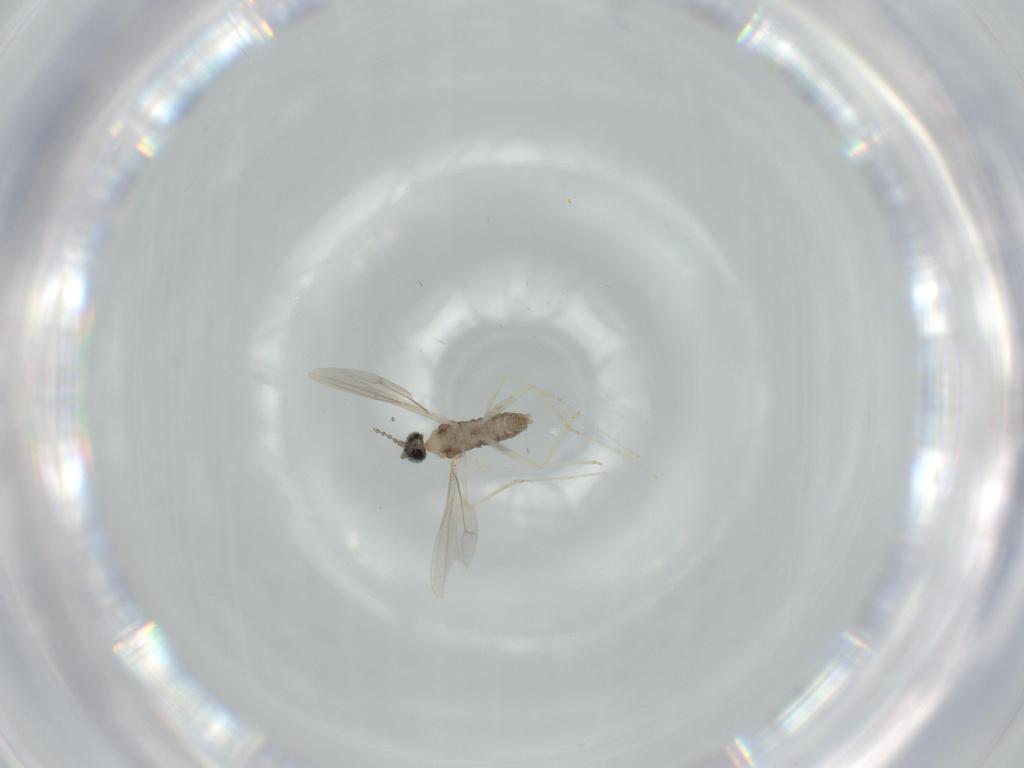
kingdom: Animalia
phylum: Arthropoda
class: Insecta
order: Diptera
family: Cecidomyiidae
